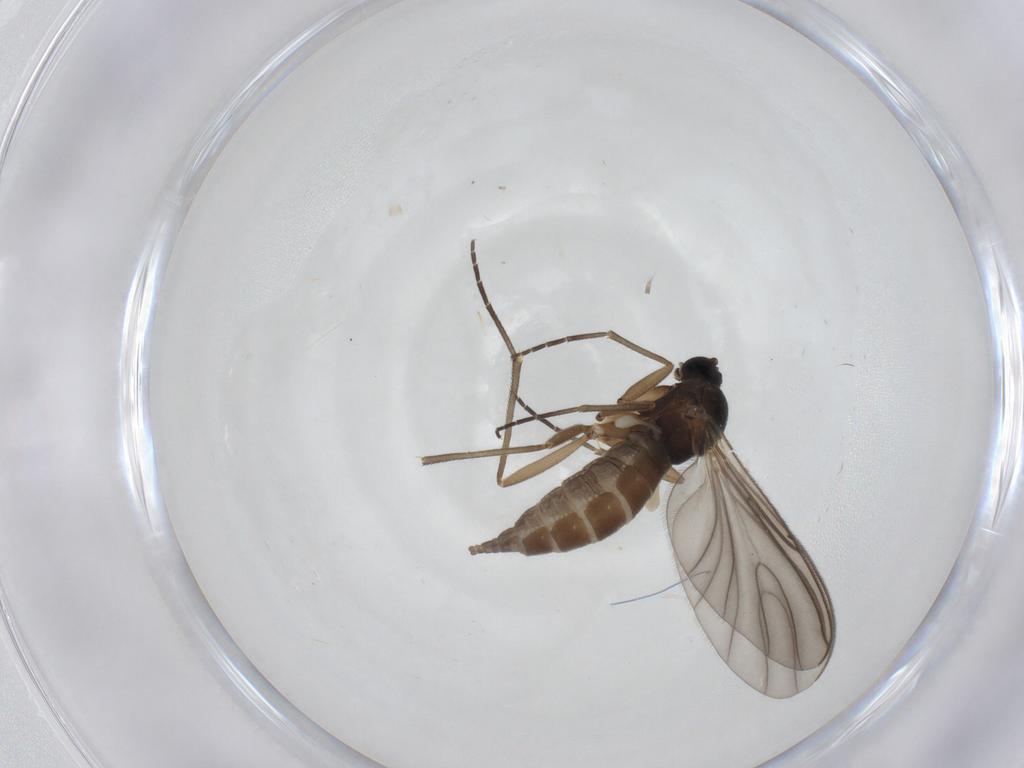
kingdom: Animalia
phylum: Arthropoda
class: Insecta
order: Diptera
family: Sciaridae
